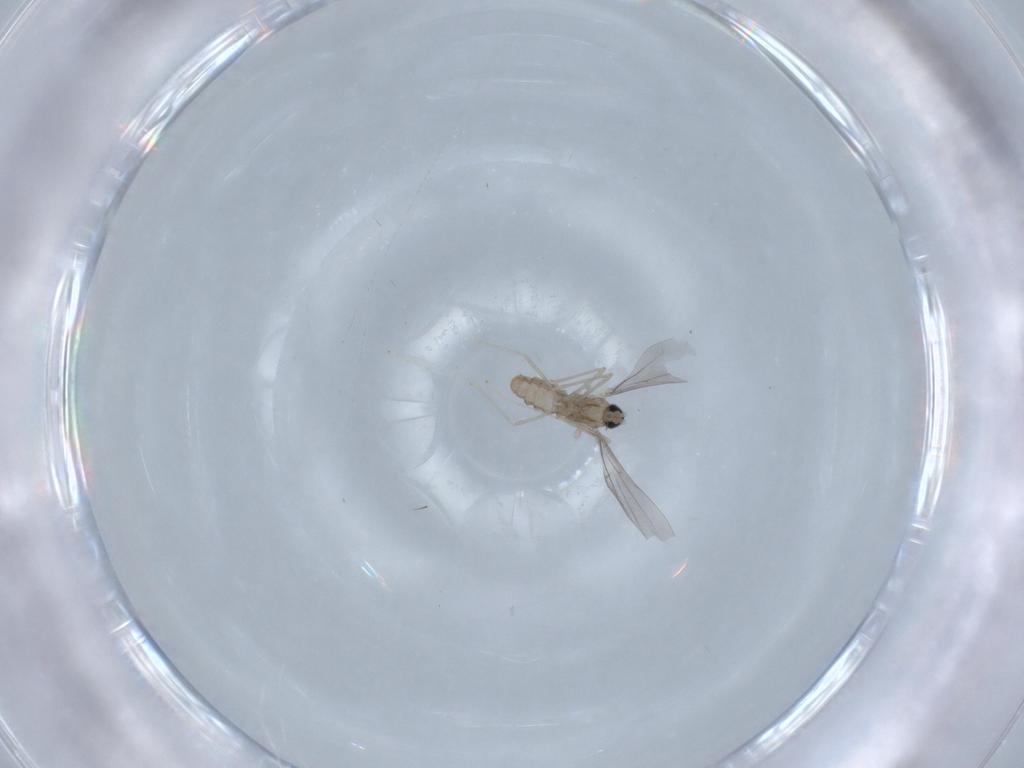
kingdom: Animalia
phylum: Arthropoda
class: Insecta
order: Diptera
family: Cecidomyiidae
